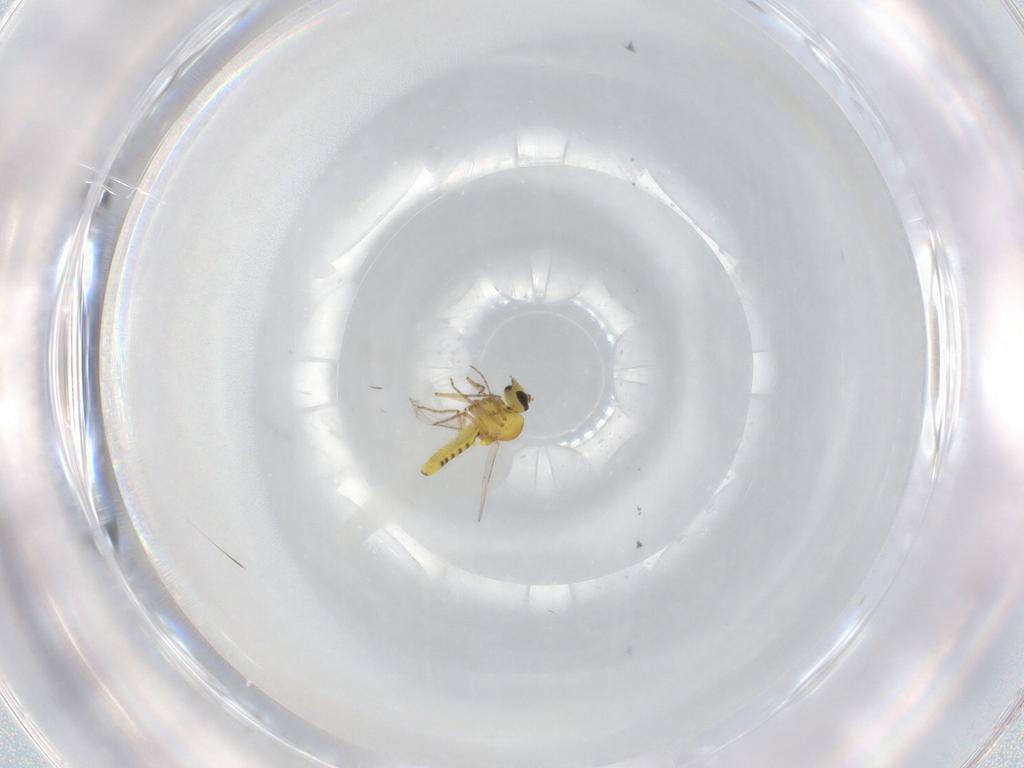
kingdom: Animalia
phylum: Arthropoda
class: Insecta
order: Diptera
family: Ceratopogonidae
